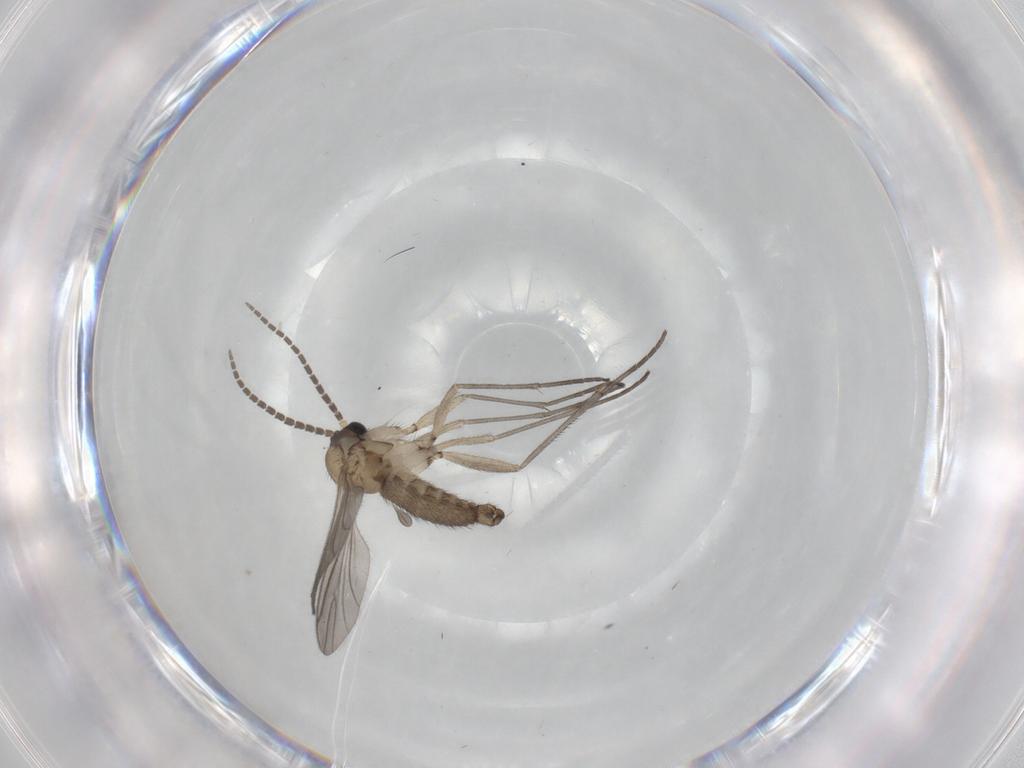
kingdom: Animalia
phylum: Arthropoda
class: Insecta
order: Diptera
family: Sciaridae
